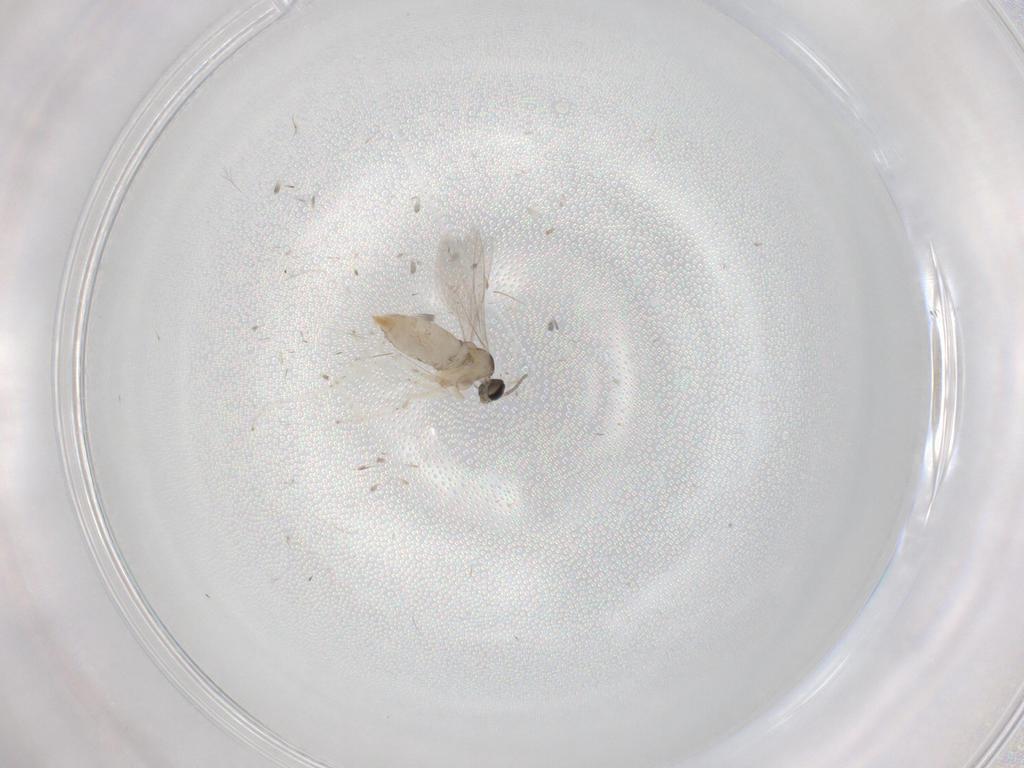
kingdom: Animalia
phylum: Arthropoda
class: Insecta
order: Diptera
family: Cecidomyiidae
